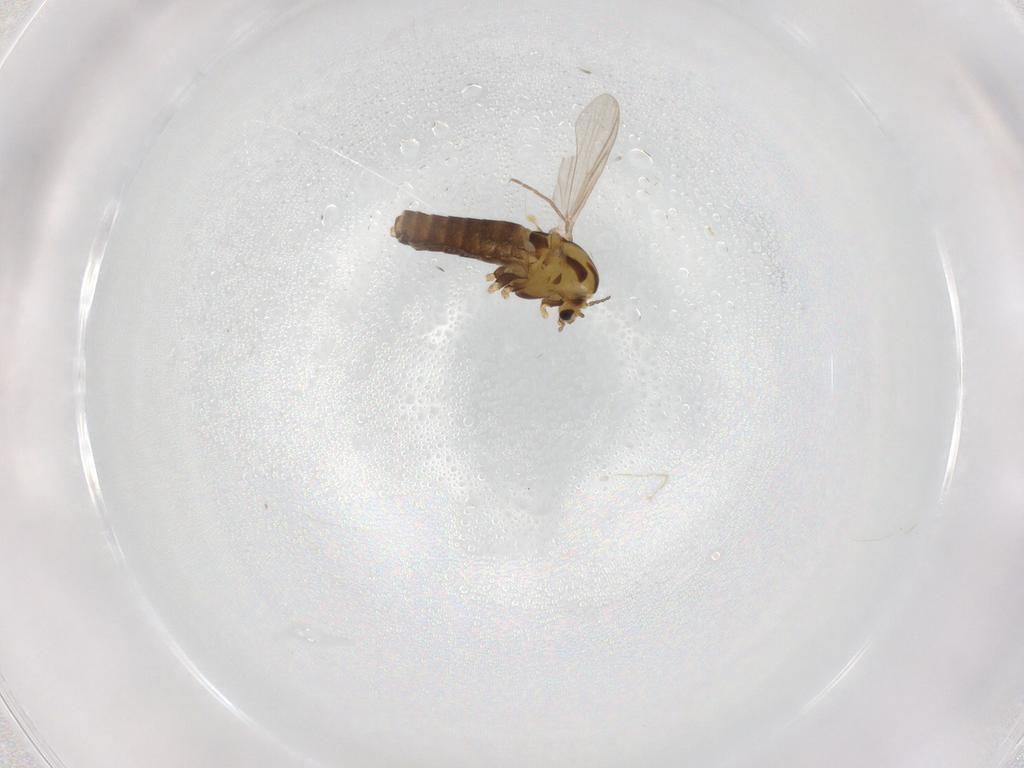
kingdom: Animalia
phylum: Arthropoda
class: Insecta
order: Diptera
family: Chironomidae
